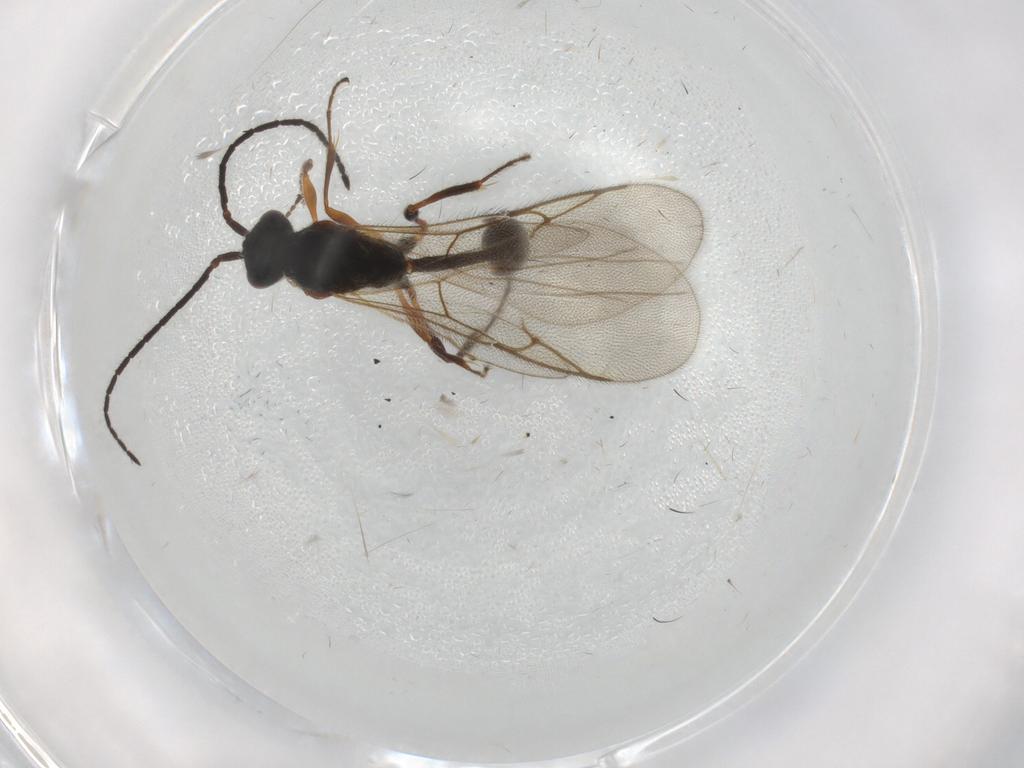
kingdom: Animalia
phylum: Arthropoda
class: Insecta
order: Hymenoptera
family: Diapriidae
